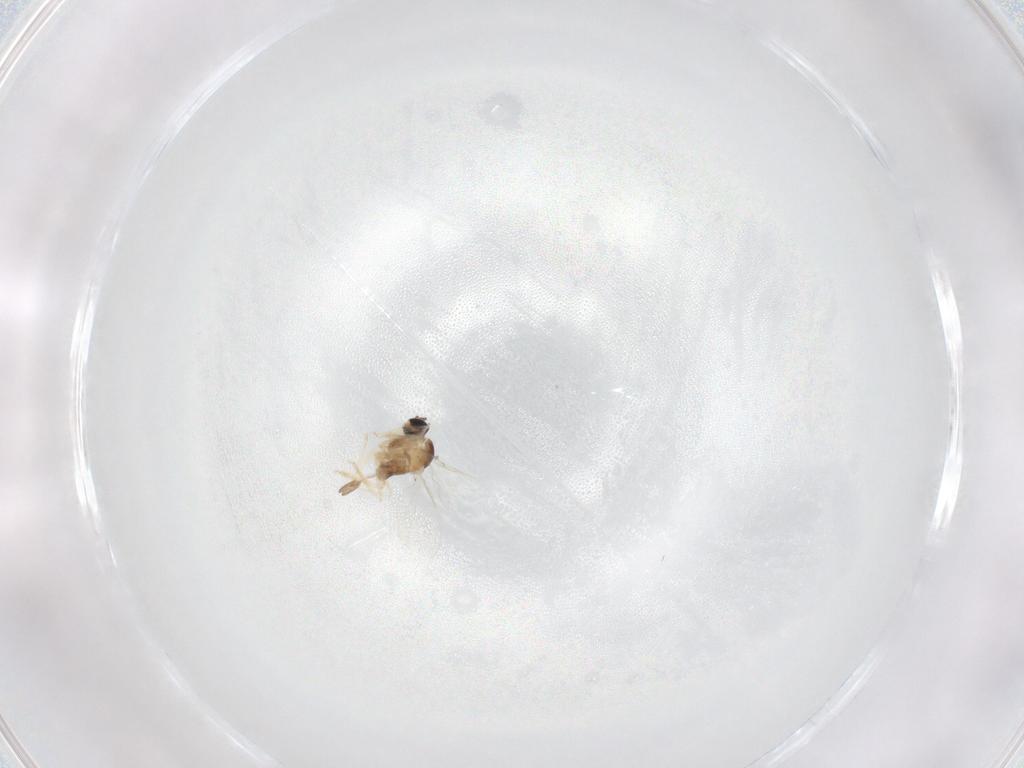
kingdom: Animalia
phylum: Arthropoda
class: Insecta
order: Diptera
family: Cecidomyiidae
